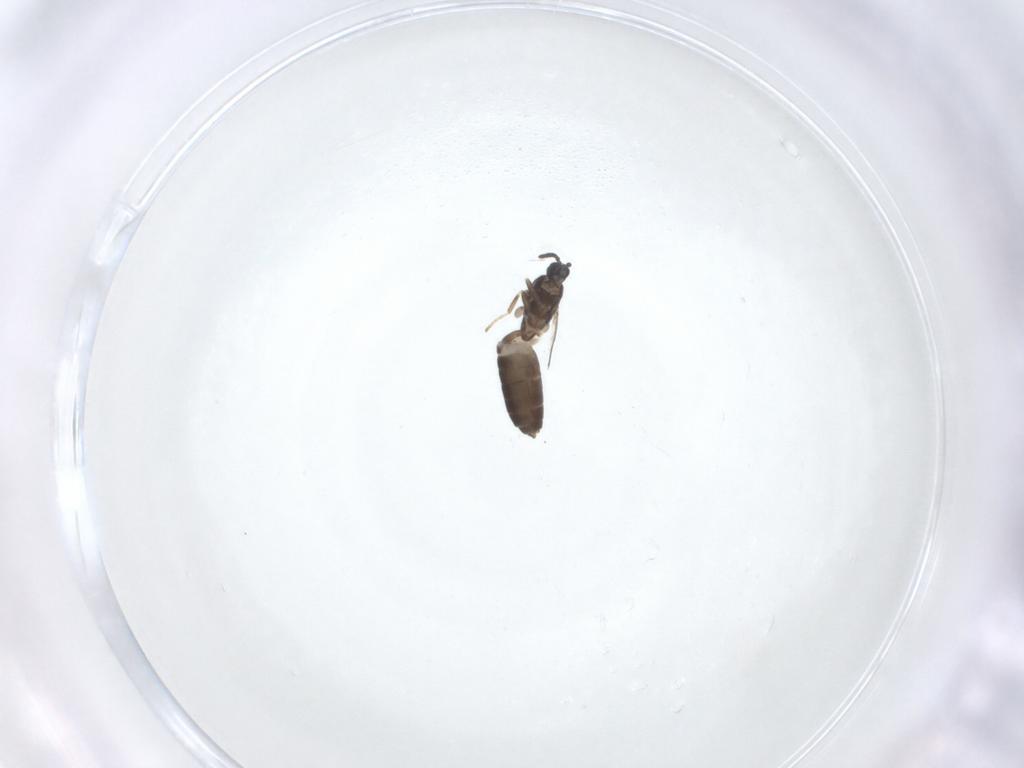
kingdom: Animalia
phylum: Arthropoda
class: Insecta
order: Diptera
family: Scatopsidae
